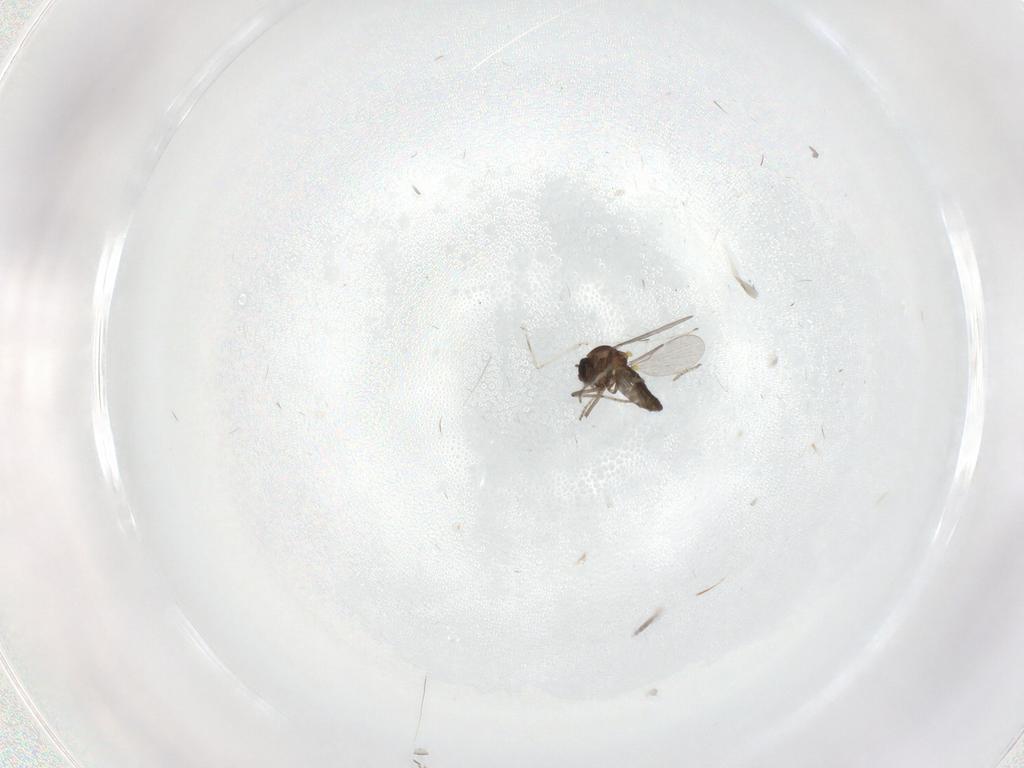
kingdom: Animalia
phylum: Arthropoda
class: Insecta
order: Diptera
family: Ceratopogonidae
